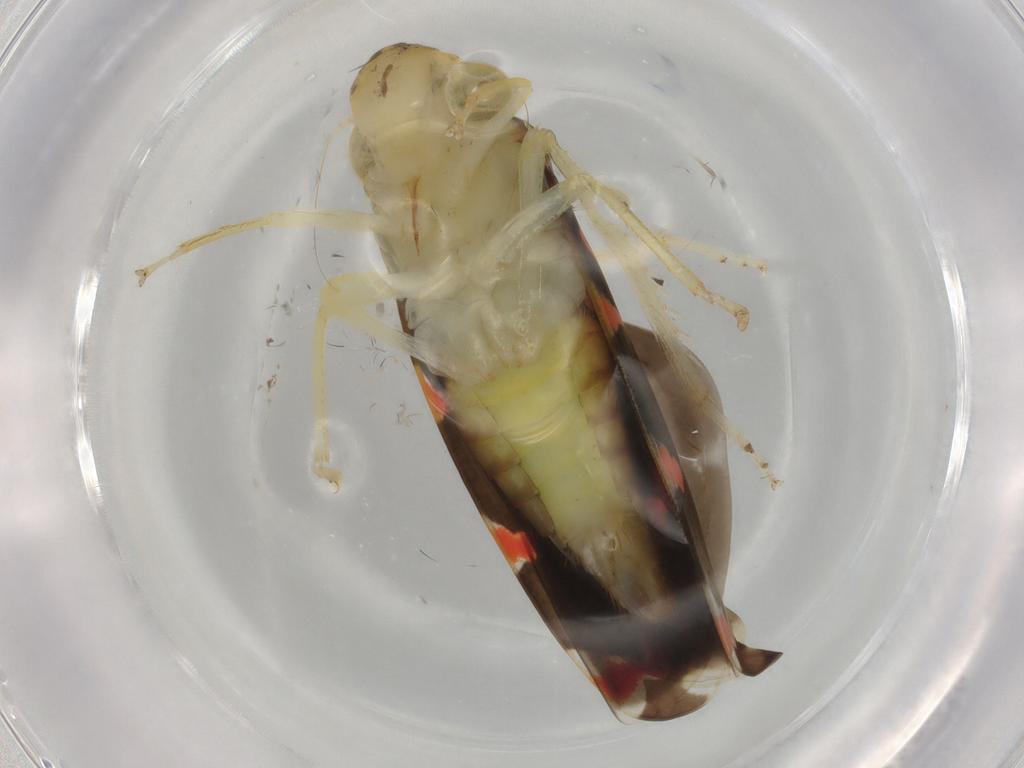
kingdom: Animalia
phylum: Arthropoda
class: Insecta
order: Hemiptera
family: Cicadellidae
